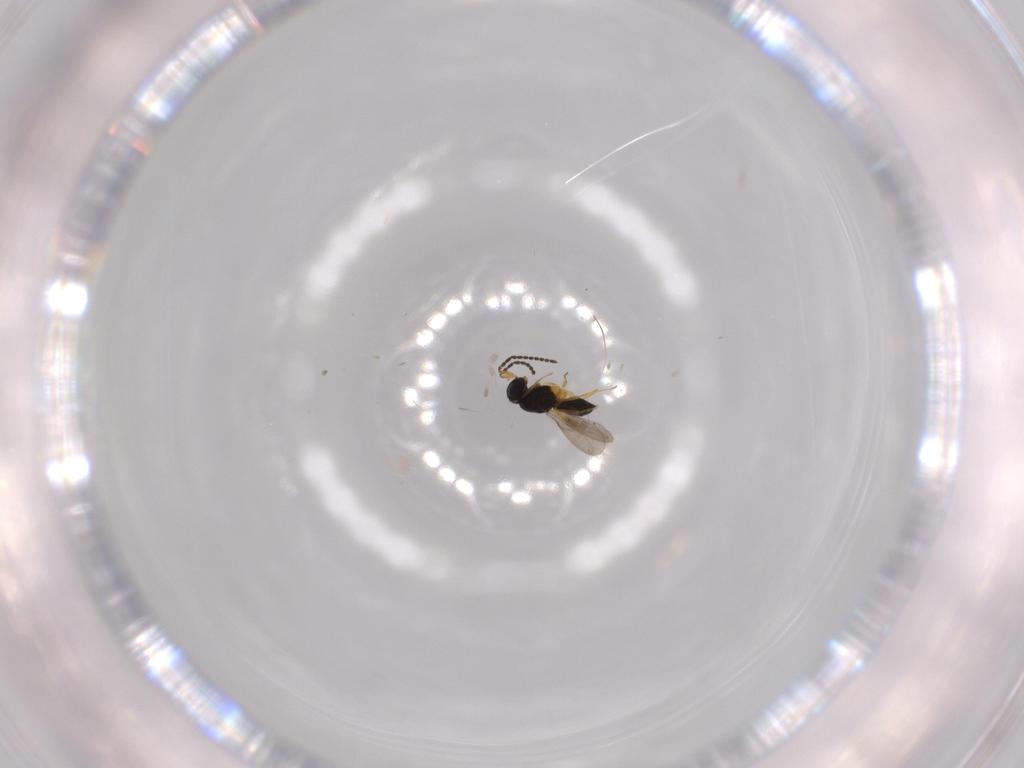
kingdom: Animalia
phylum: Arthropoda
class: Insecta
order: Hymenoptera
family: Scelionidae
